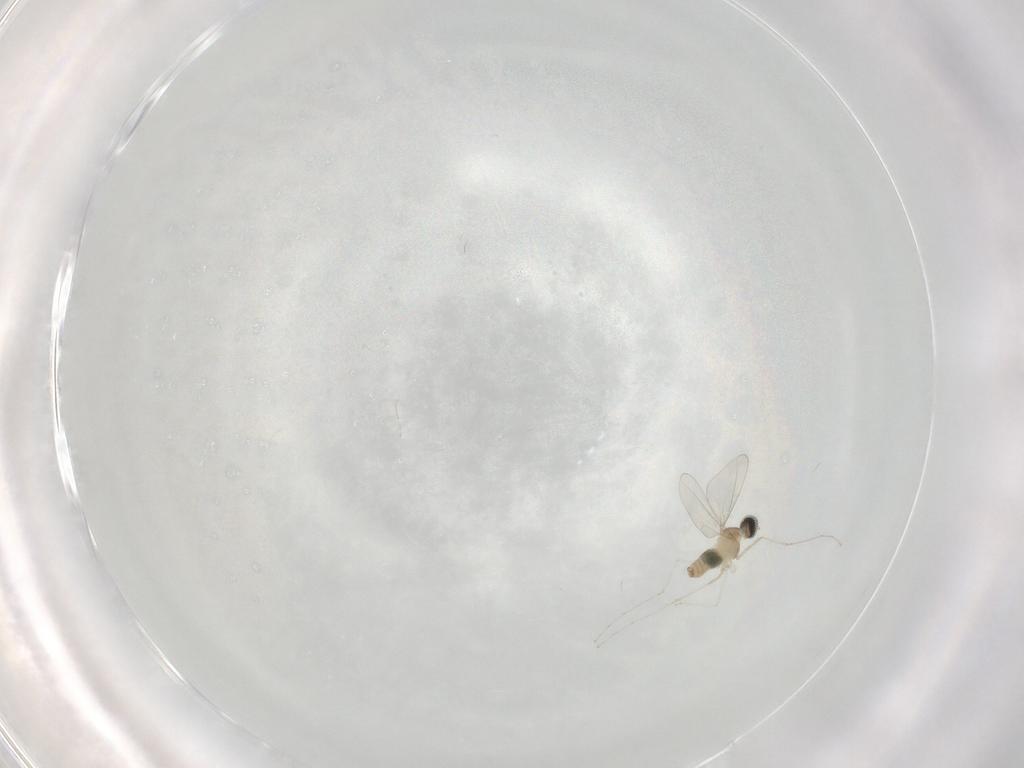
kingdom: Animalia
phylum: Arthropoda
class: Insecta
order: Diptera
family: Cecidomyiidae
